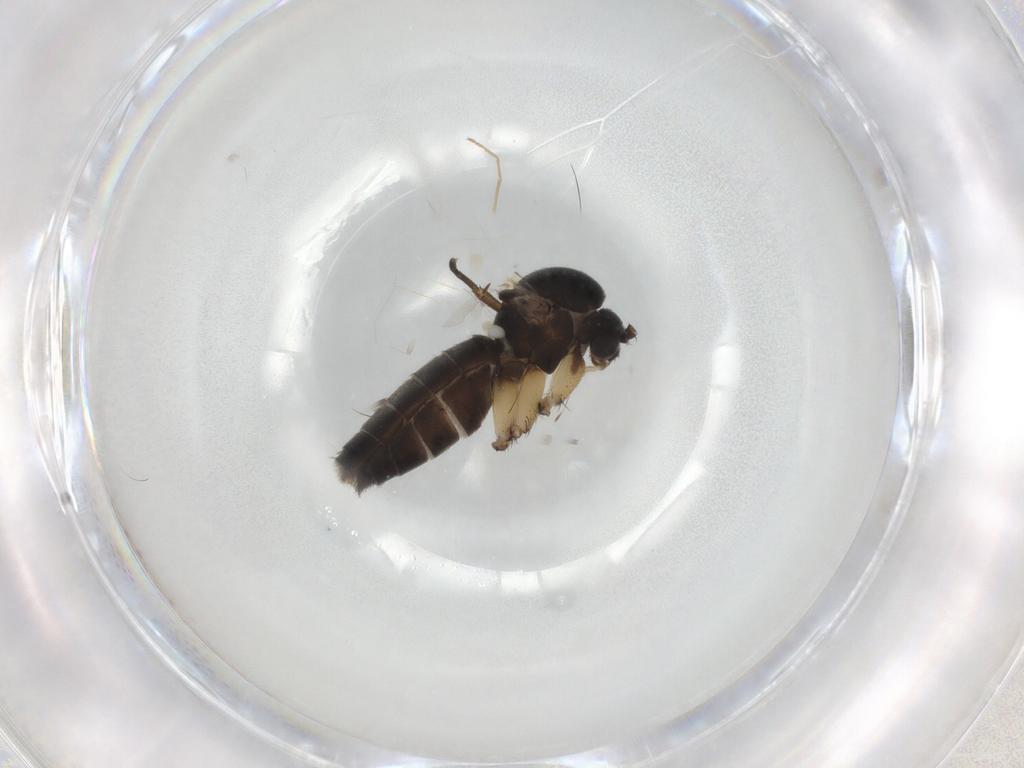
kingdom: Animalia
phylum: Arthropoda
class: Insecta
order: Diptera
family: Mycetophilidae
